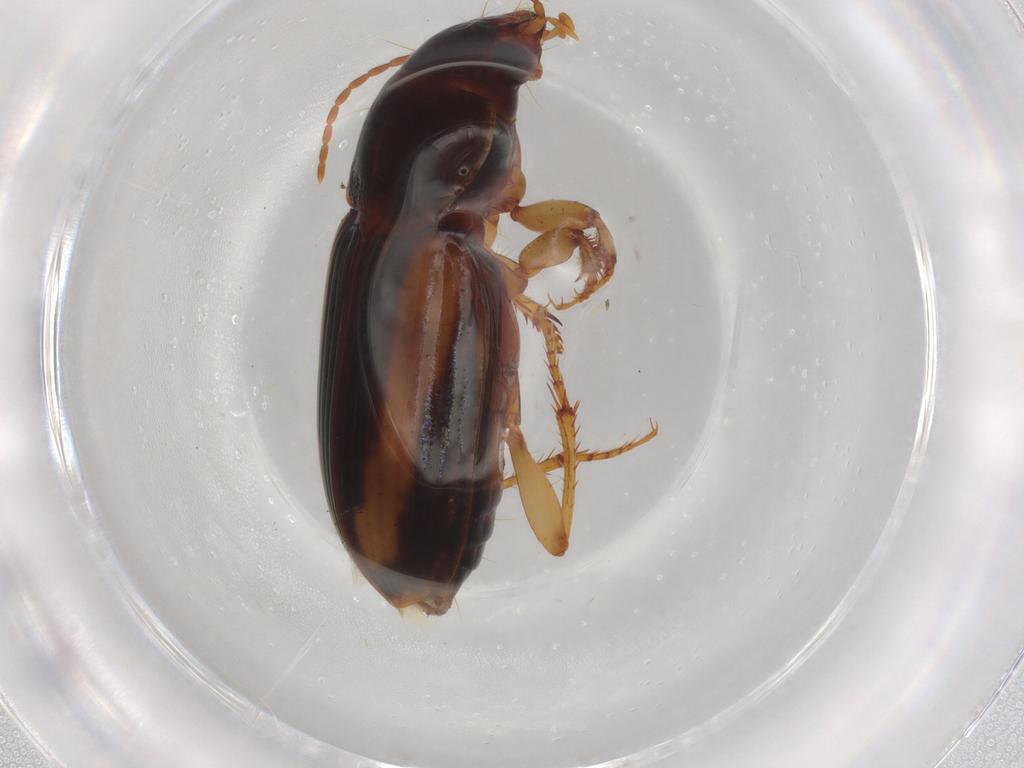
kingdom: Animalia
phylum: Arthropoda
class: Insecta
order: Coleoptera
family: Carabidae
